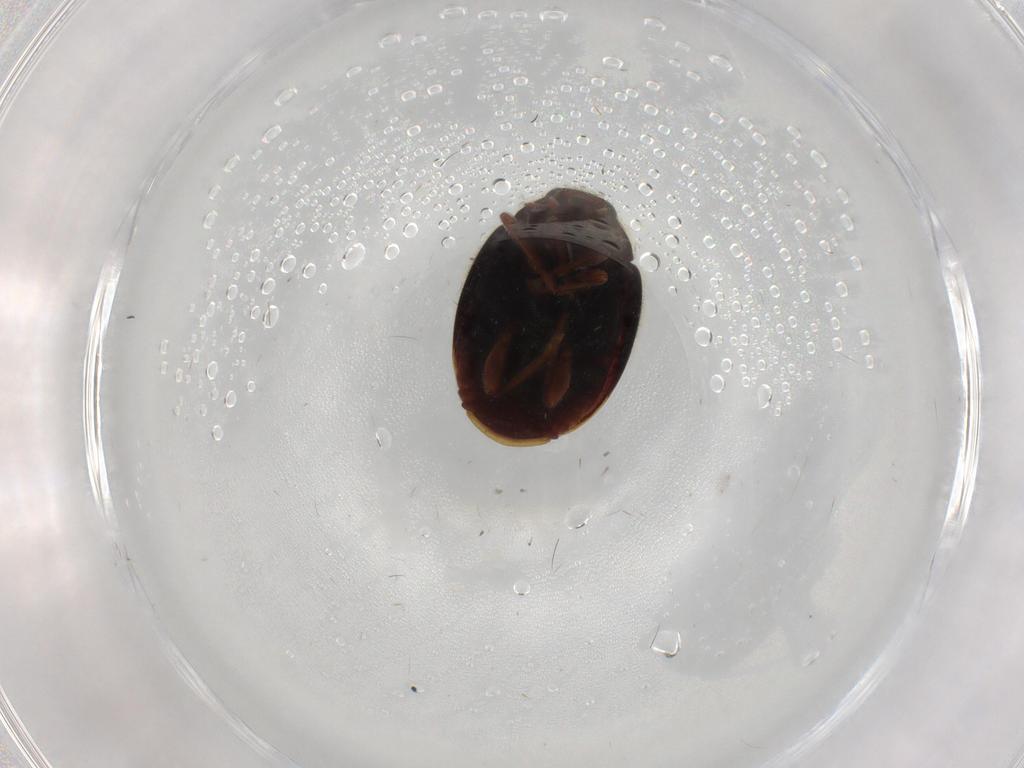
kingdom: Animalia
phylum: Arthropoda
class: Insecta
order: Coleoptera
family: Coccinellidae
